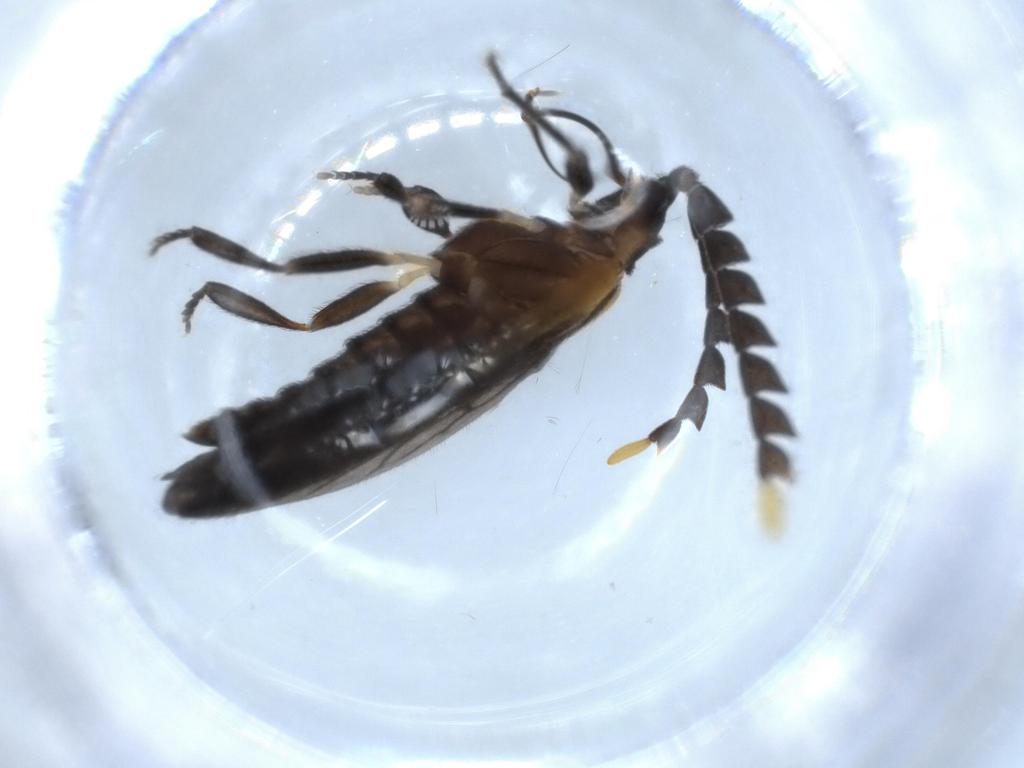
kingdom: Animalia
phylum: Arthropoda
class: Insecta
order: Coleoptera
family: Lycidae
